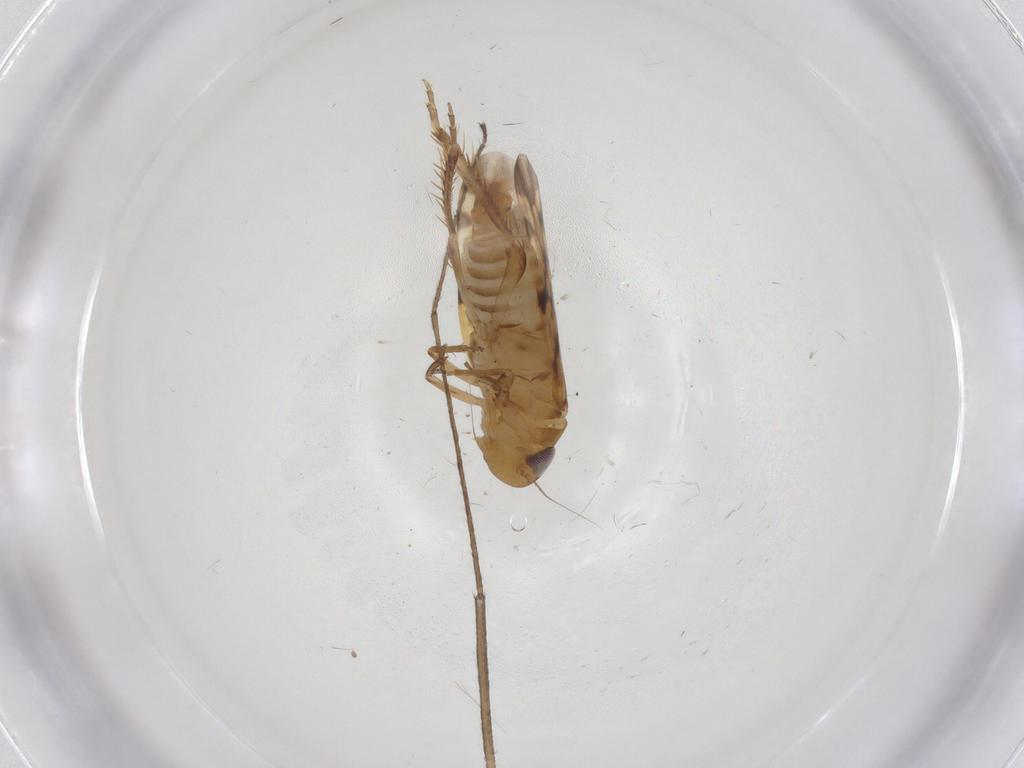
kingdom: Animalia
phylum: Arthropoda
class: Insecta
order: Hemiptera
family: Cicadellidae
